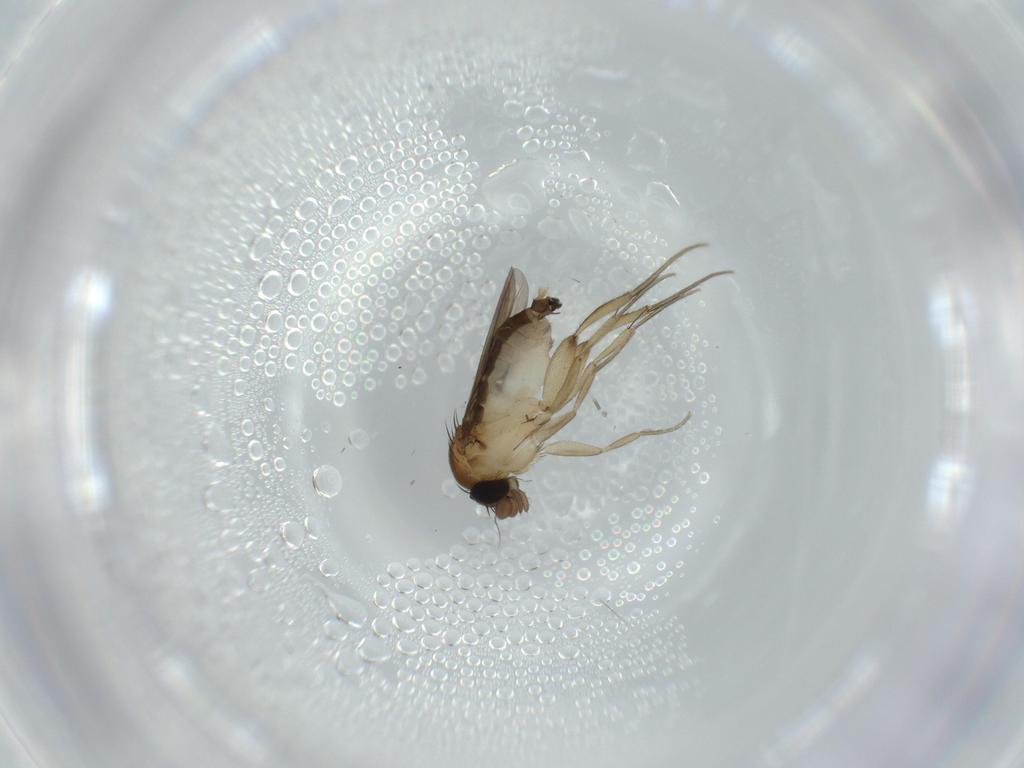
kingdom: Animalia
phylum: Arthropoda
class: Insecta
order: Diptera
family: Phoridae
